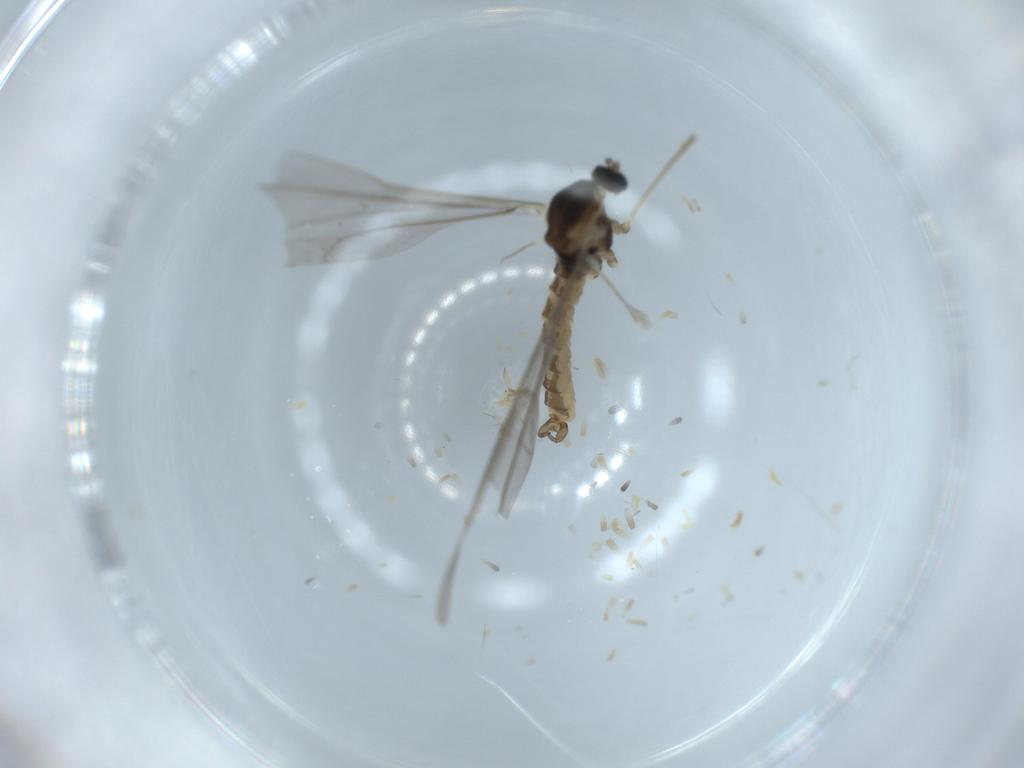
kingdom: Animalia
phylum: Arthropoda
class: Insecta
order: Diptera
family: Cecidomyiidae
